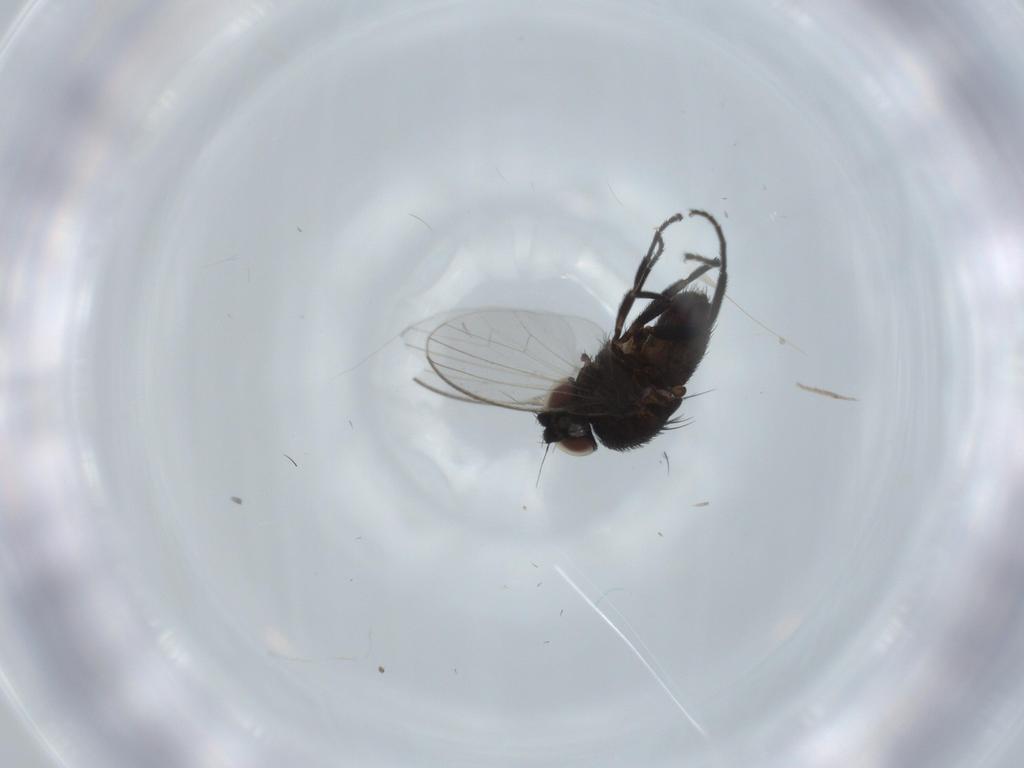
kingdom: Animalia
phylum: Arthropoda
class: Insecta
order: Diptera
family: Milichiidae
